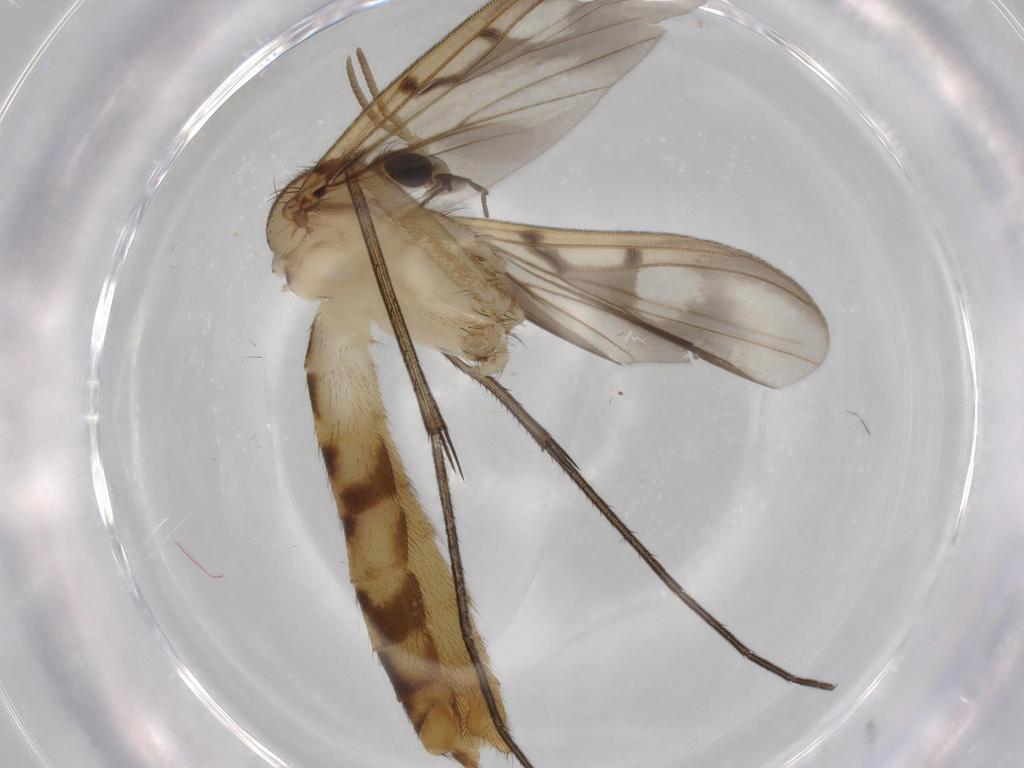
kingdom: Animalia
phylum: Arthropoda
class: Insecta
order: Diptera
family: Mycetophilidae
